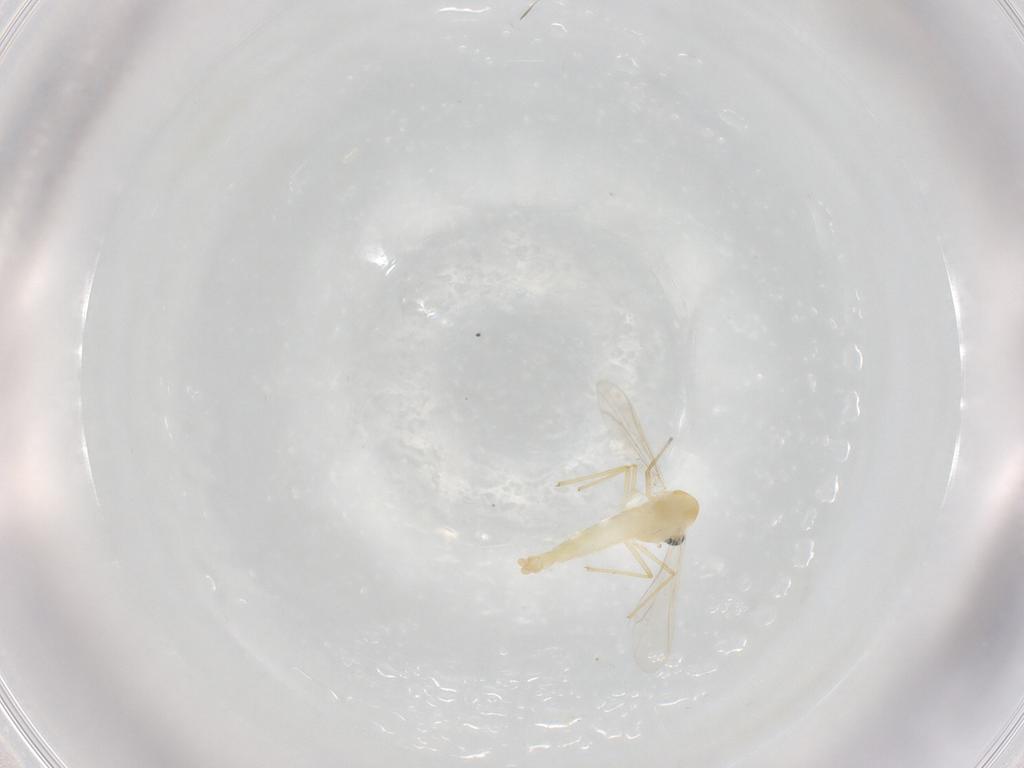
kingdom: Animalia
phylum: Arthropoda
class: Insecta
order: Diptera
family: Chironomidae
